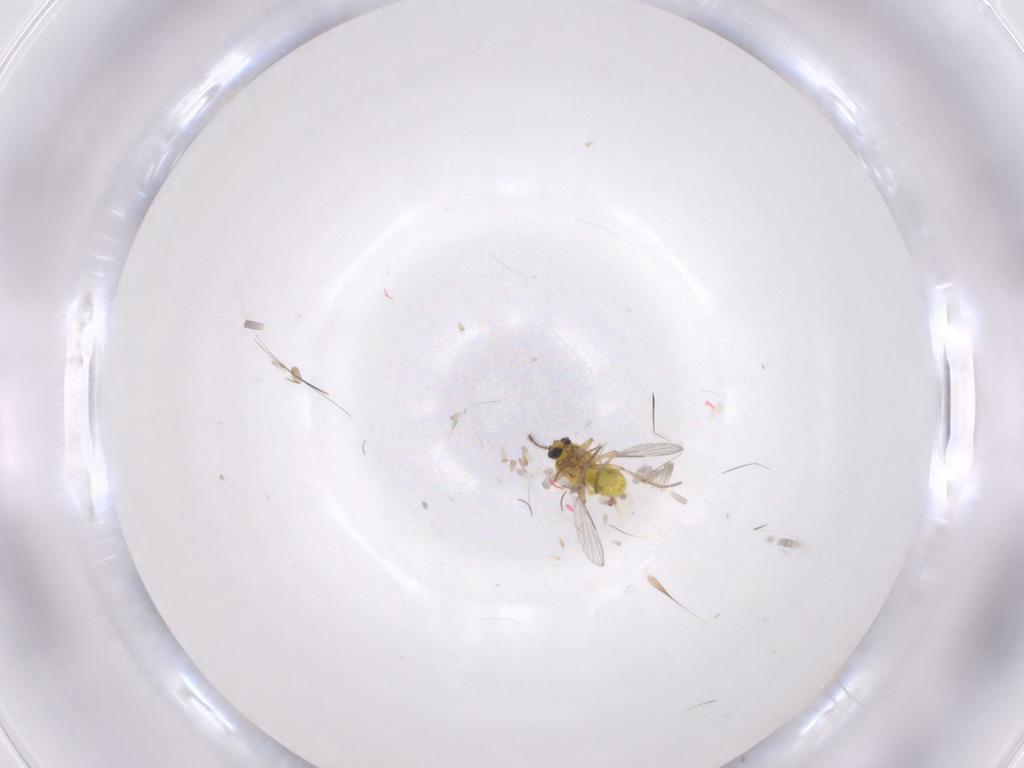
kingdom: Animalia
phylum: Arthropoda
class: Insecta
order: Diptera
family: Ceratopogonidae
